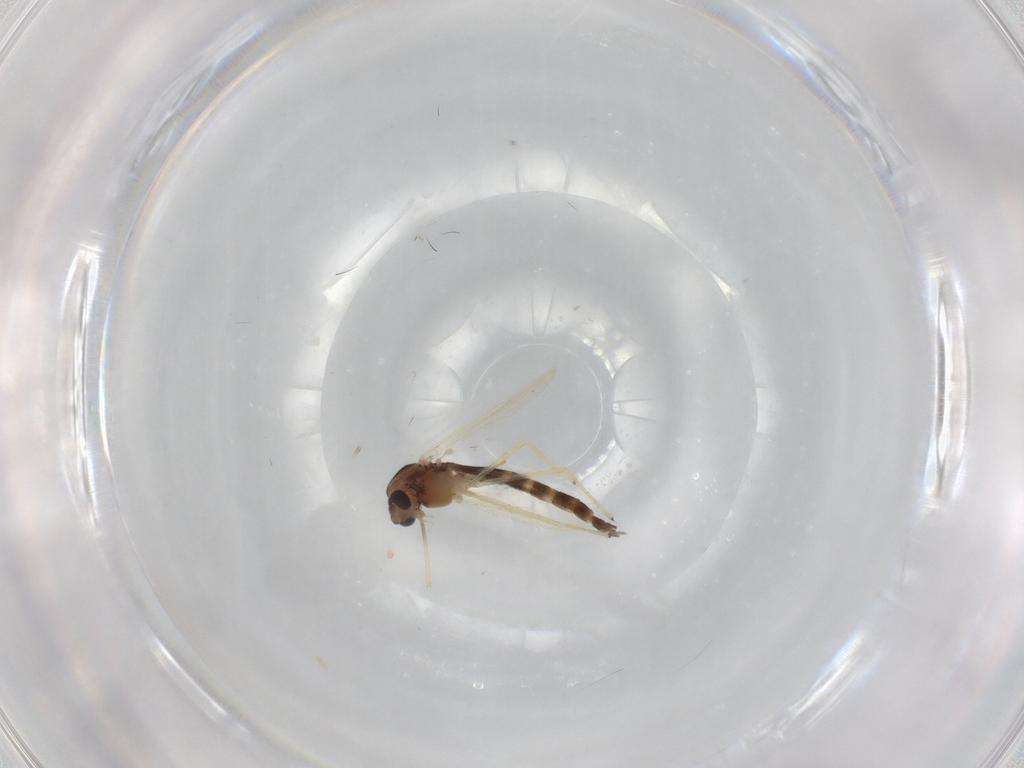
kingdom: Animalia
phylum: Arthropoda
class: Insecta
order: Diptera
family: Chironomidae
